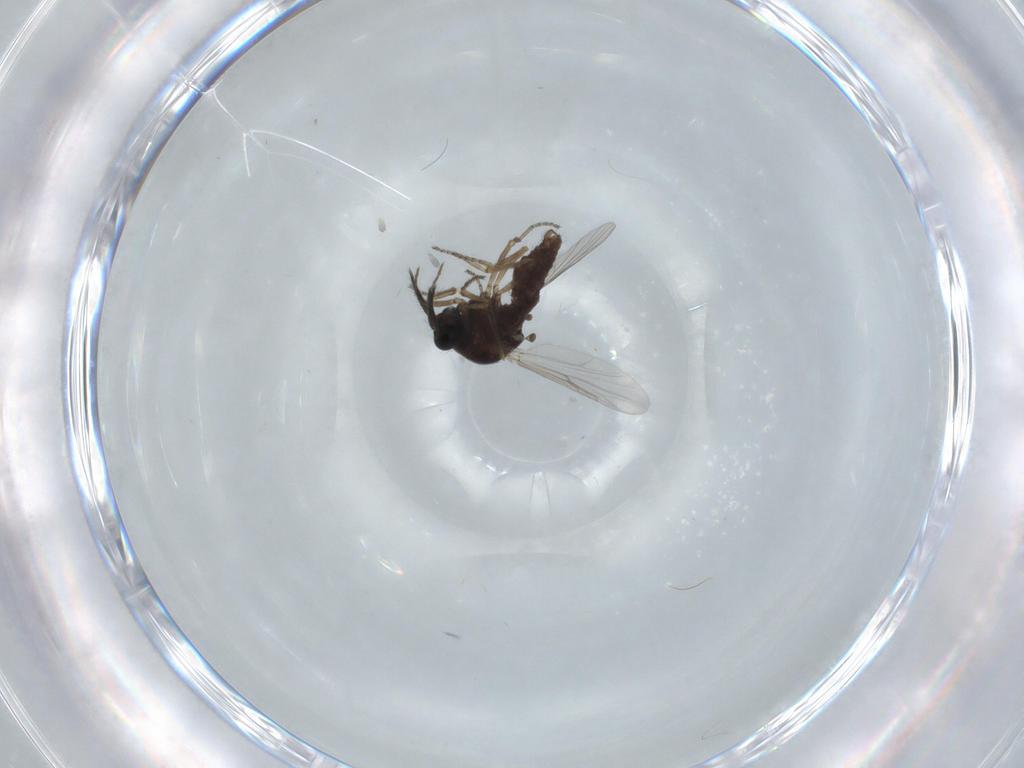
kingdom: Animalia
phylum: Arthropoda
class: Insecta
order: Diptera
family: Ceratopogonidae
